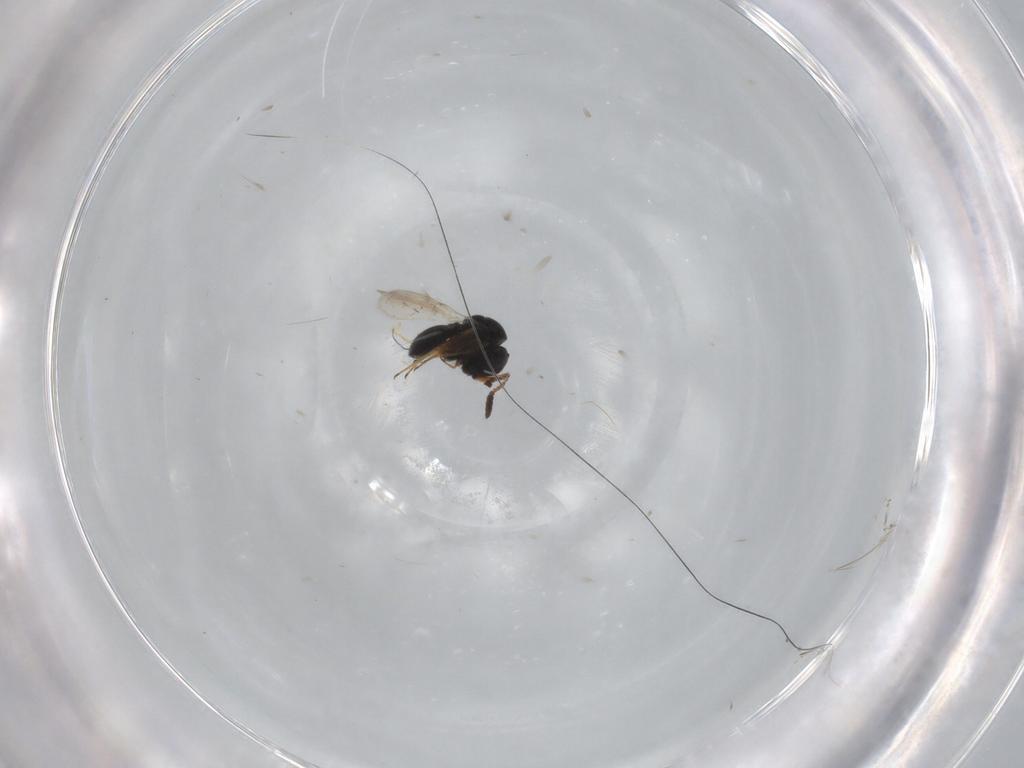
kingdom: Animalia
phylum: Arthropoda
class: Insecta
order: Hymenoptera
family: Scelionidae
